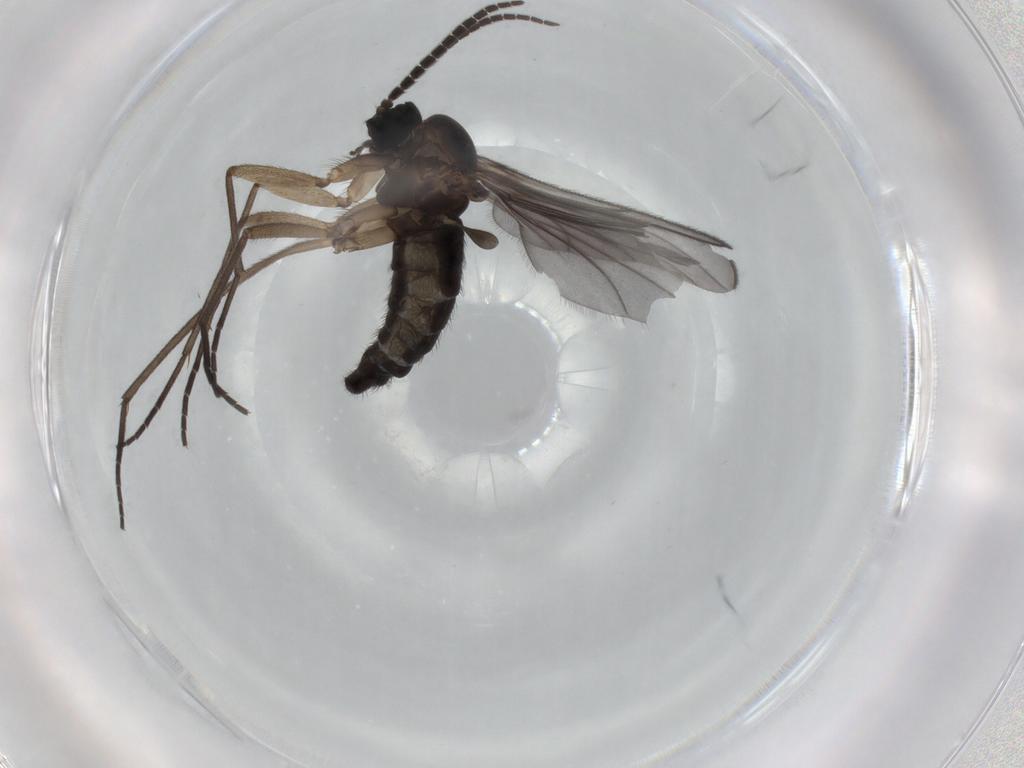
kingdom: Animalia
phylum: Arthropoda
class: Insecta
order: Diptera
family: Sciaridae
